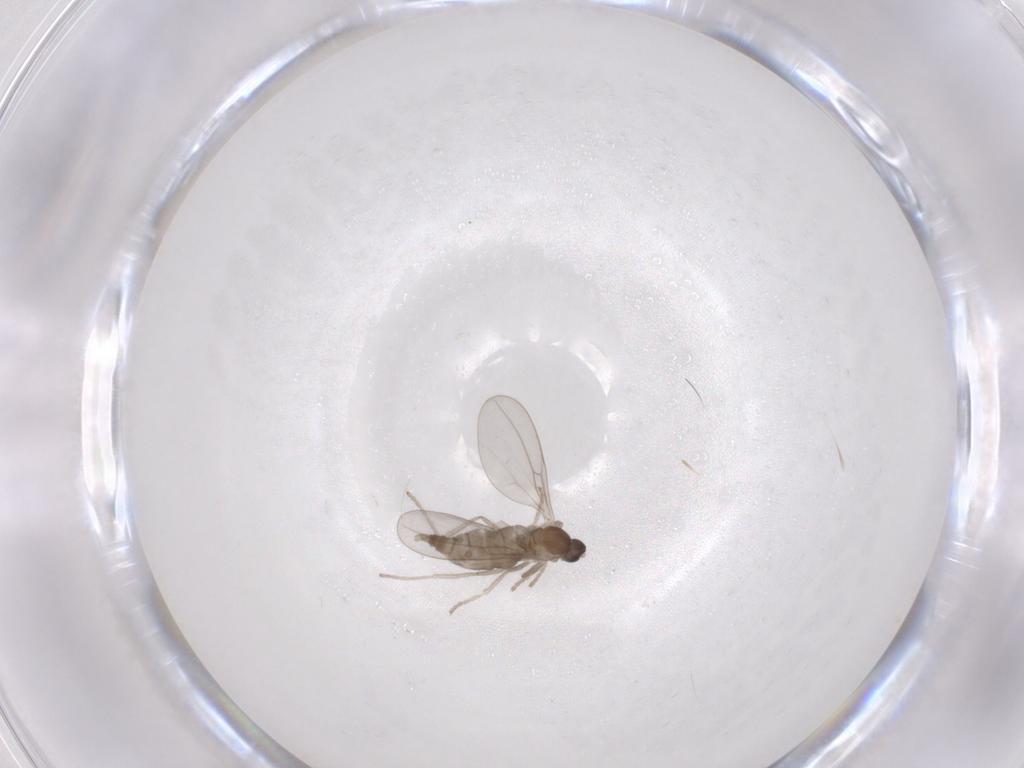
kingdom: Animalia
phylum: Arthropoda
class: Insecta
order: Diptera
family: Cecidomyiidae
